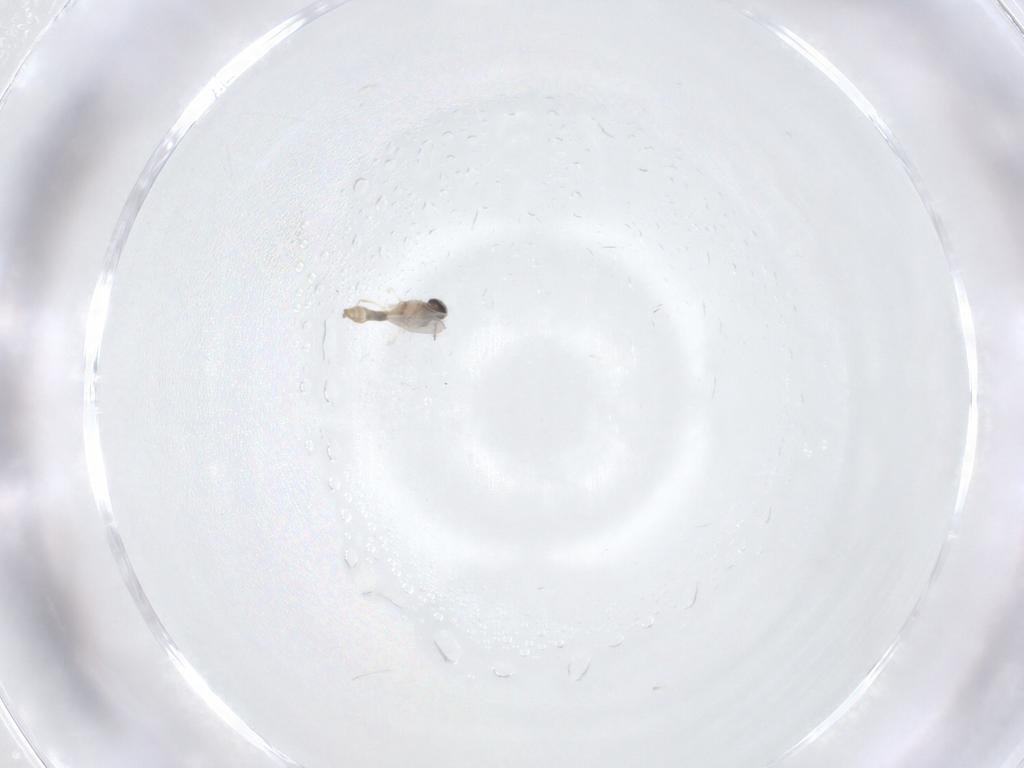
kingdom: Animalia
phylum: Arthropoda
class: Insecta
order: Diptera
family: Cecidomyiidae
